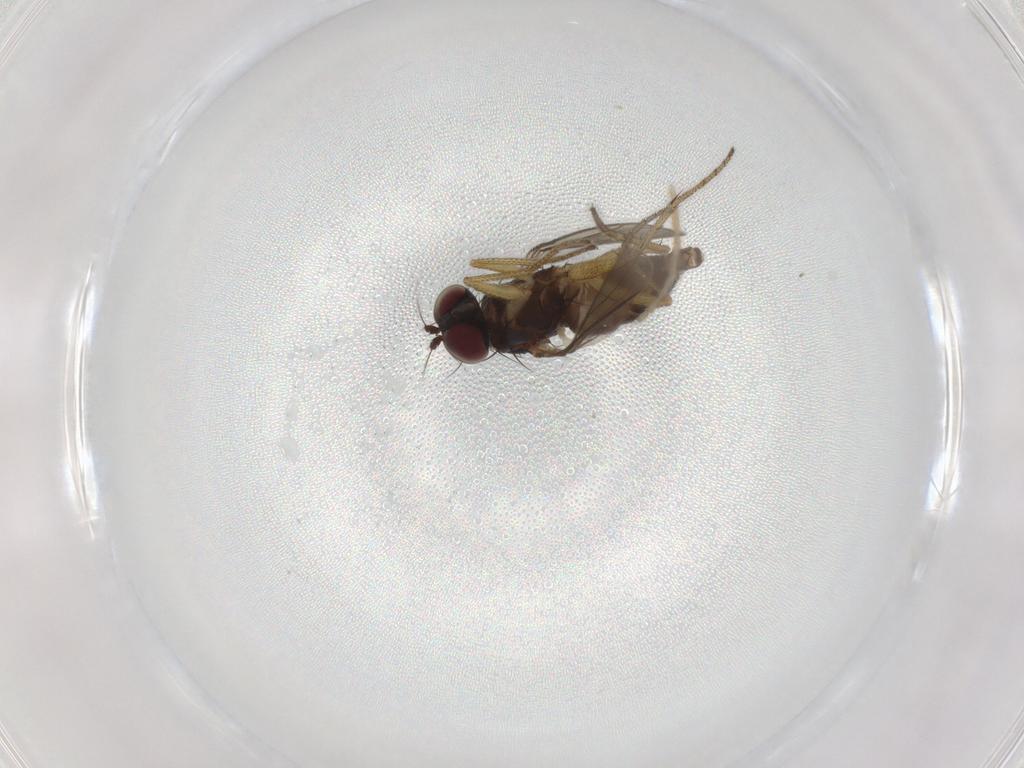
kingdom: Animalia
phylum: Arthropoda
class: Insecta
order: Diptera
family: Chironomidae
